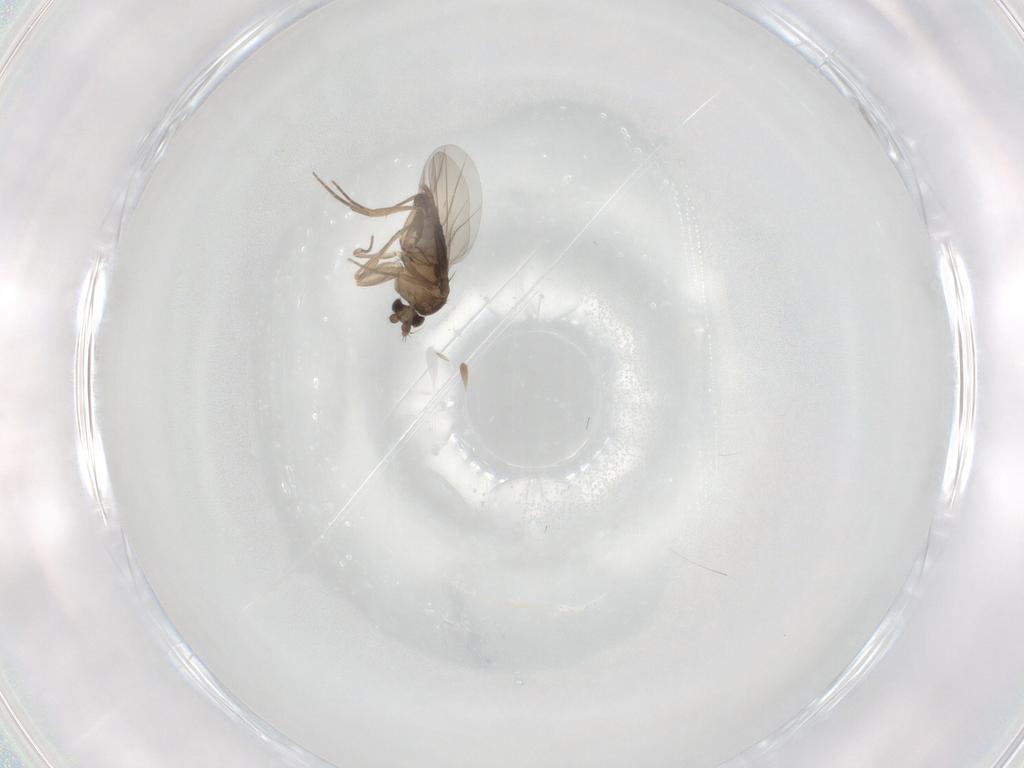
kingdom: Animalia
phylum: Arthropoda
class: Insecta
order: Diptera
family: Phoridae
